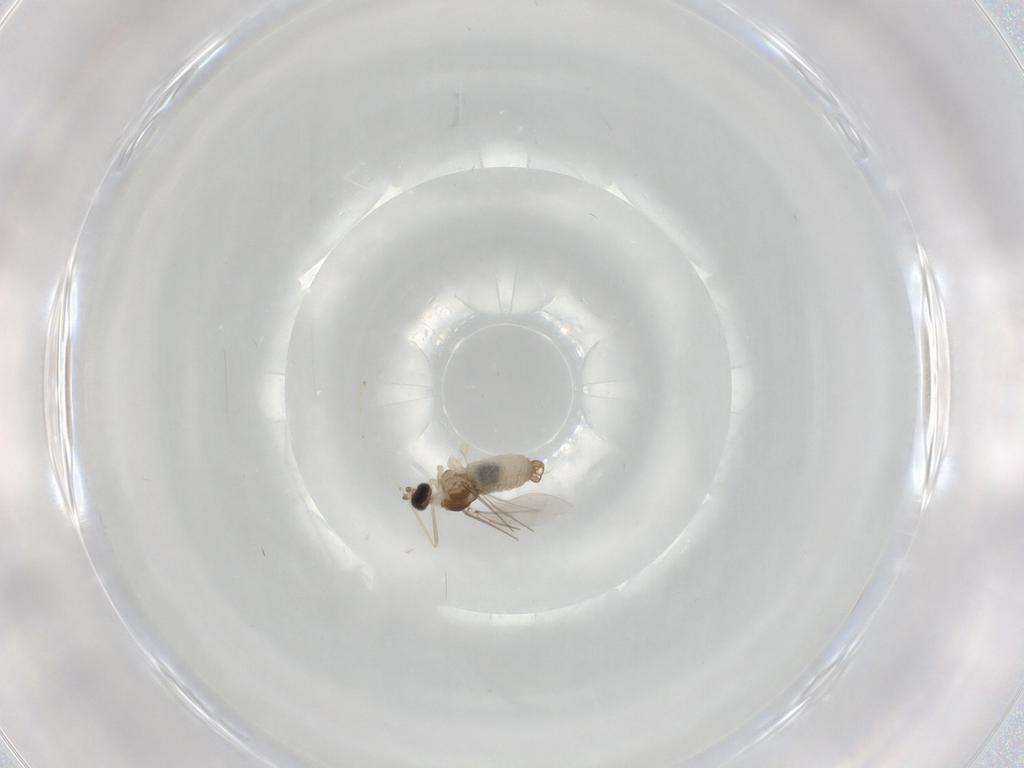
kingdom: Animalia
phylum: Arthropoda
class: Insecta
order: Diptera
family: Cecidomyiidae
